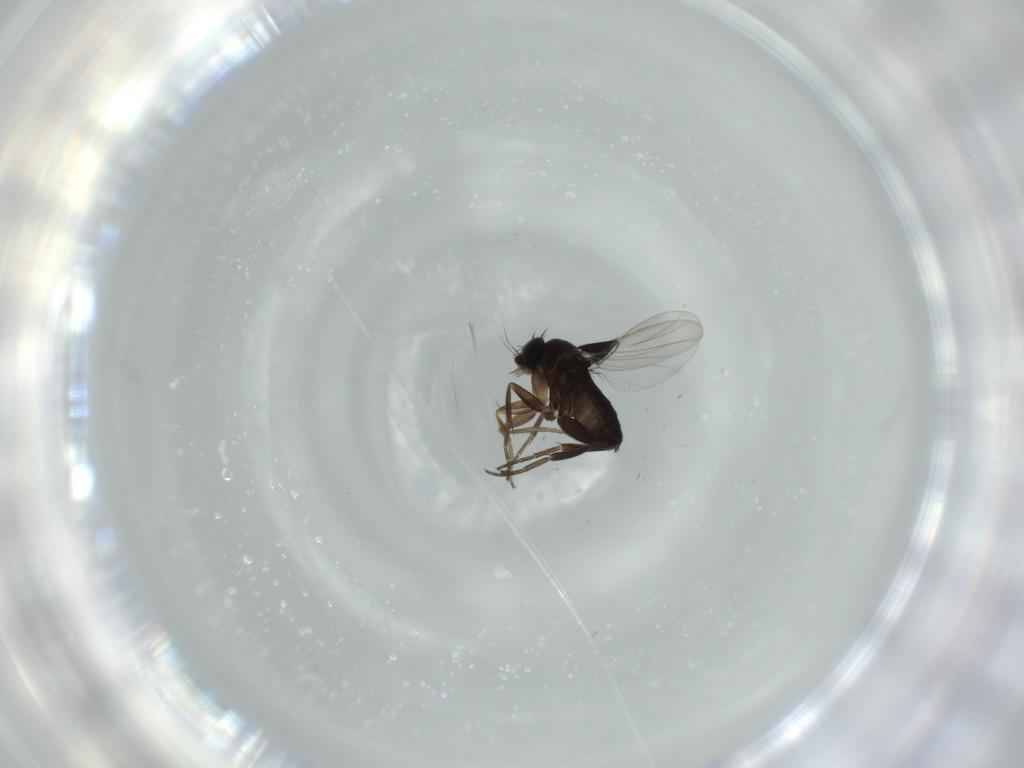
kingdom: Animalia
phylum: Arthropoda
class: Insecta
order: Diptera
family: Phoridae
